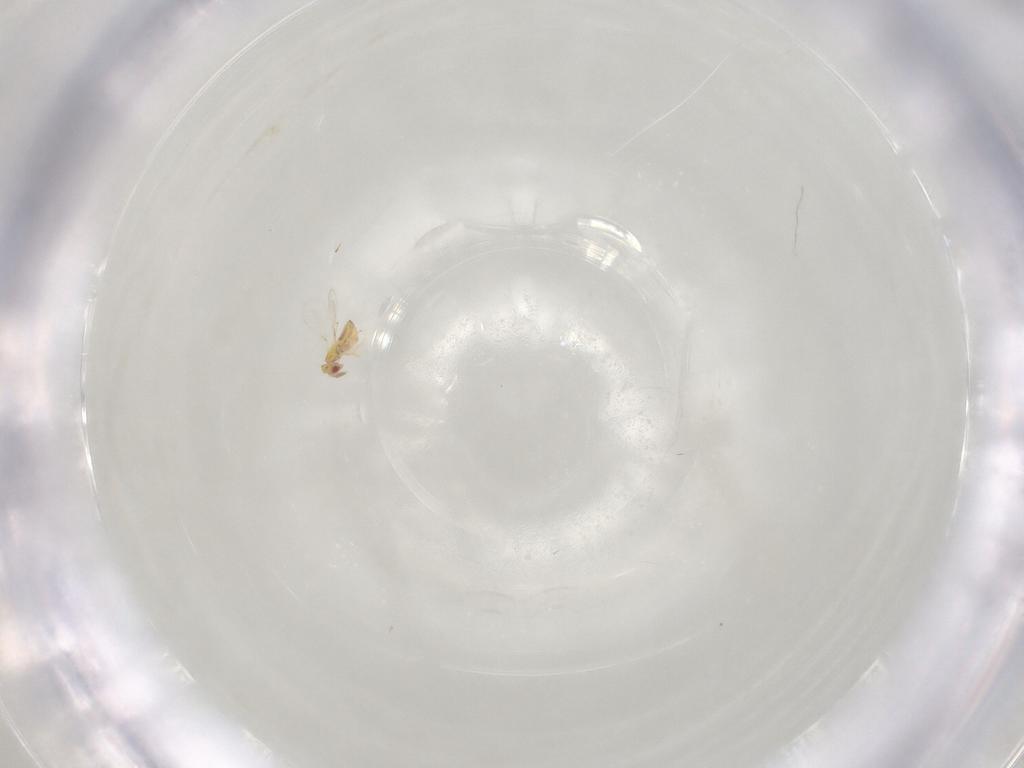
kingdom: Animalia
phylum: Arthropoda
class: Insecta
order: Hymenoptera
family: Trichogrammatidae
